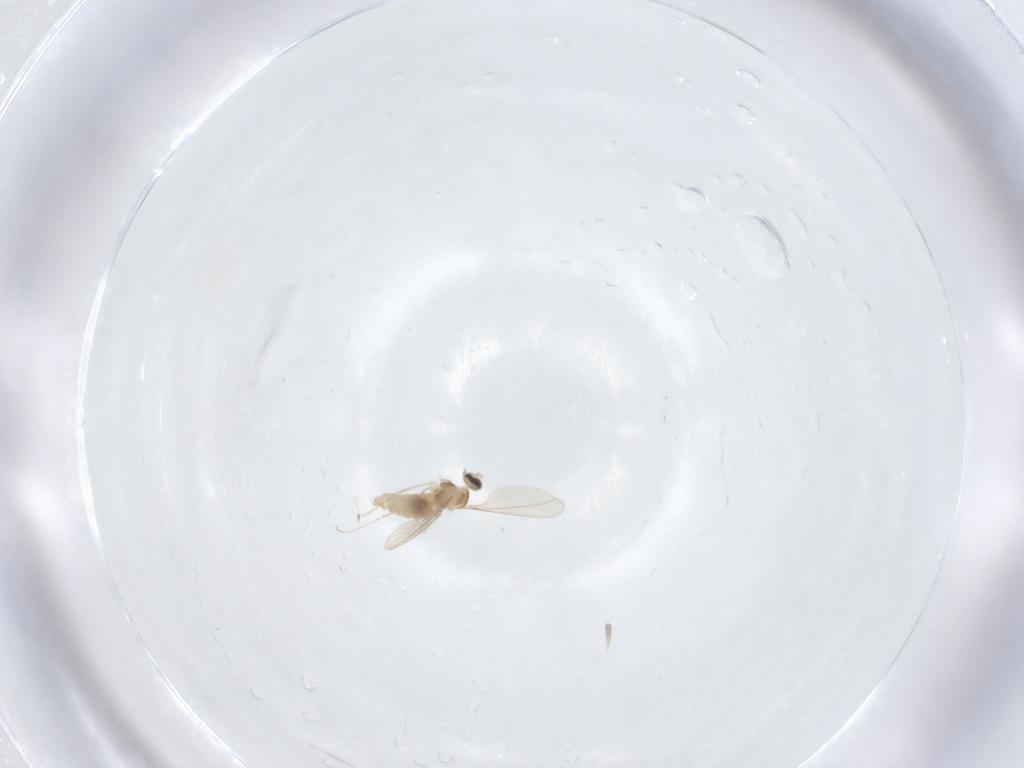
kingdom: Animalia
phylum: Arthropoda
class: Insecta
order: Diptera
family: Phoridae
